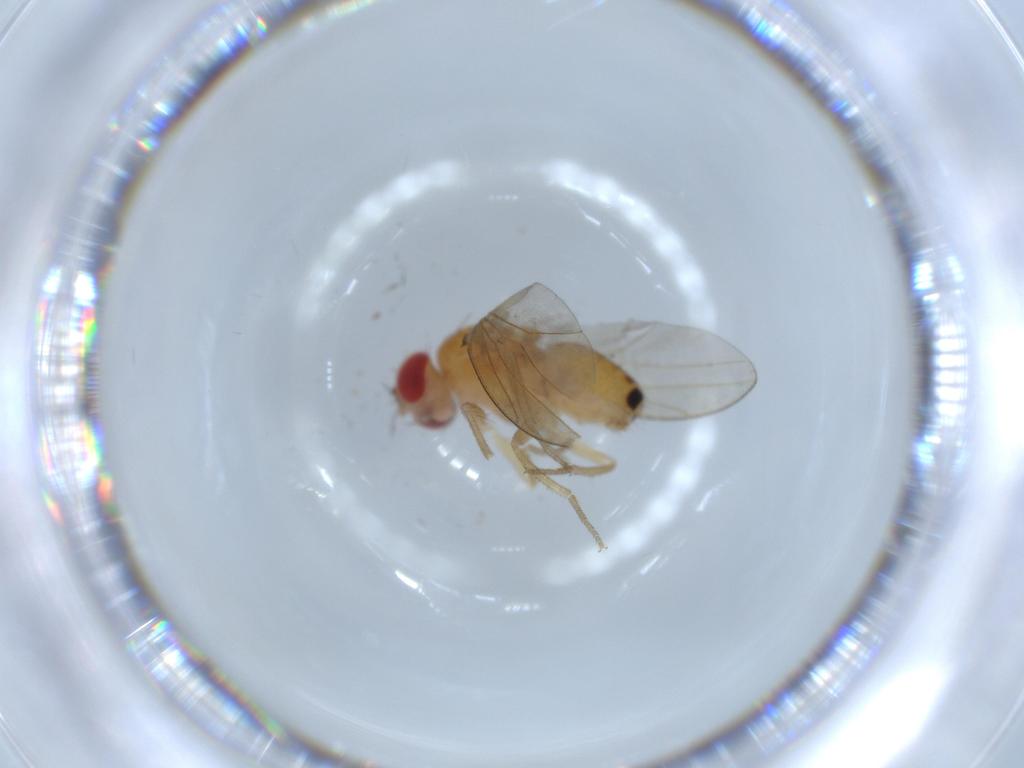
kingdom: Animalia
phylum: Arthropoda
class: Insecta
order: Diptera
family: Drosophilidae
